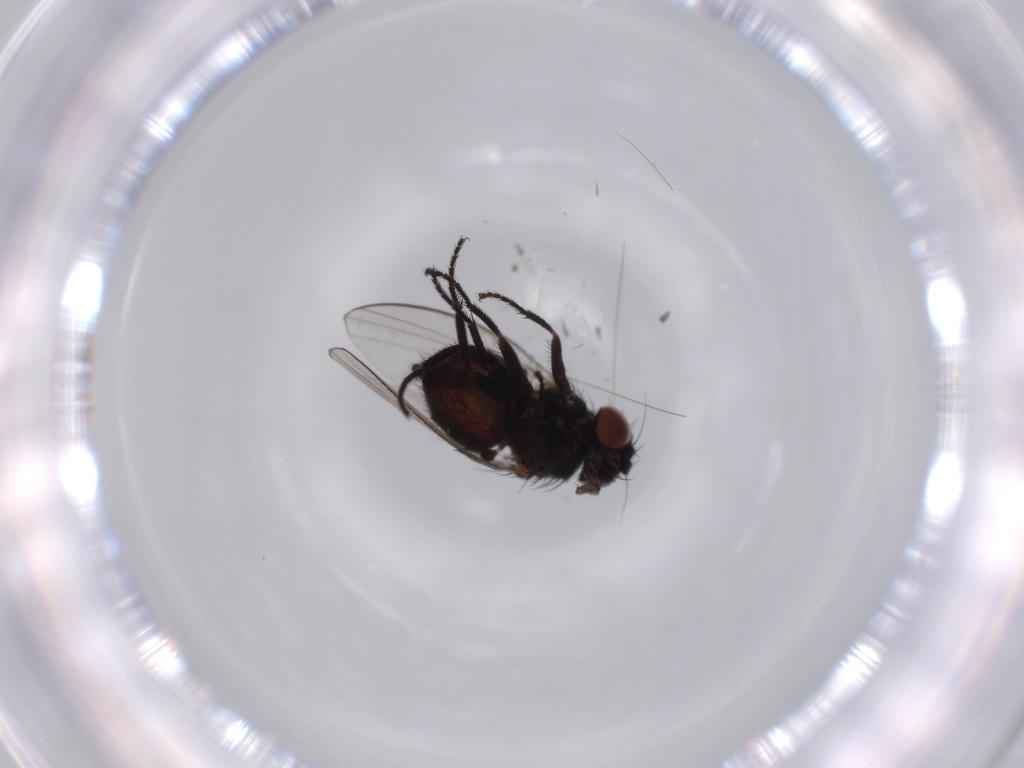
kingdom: Animalia
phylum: Arthropoda
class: Insecta
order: Diptera
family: Milichiidae
